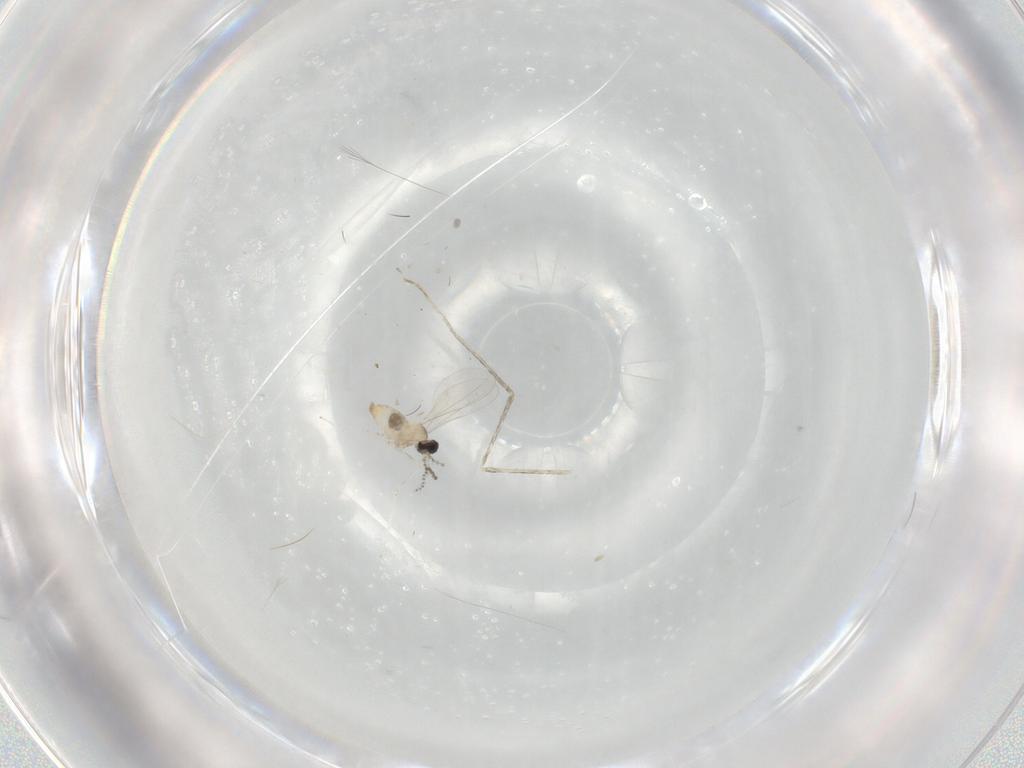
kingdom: Animalia
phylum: Arthropoda
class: Insecta
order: Diptera
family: Cecidomyiidae
